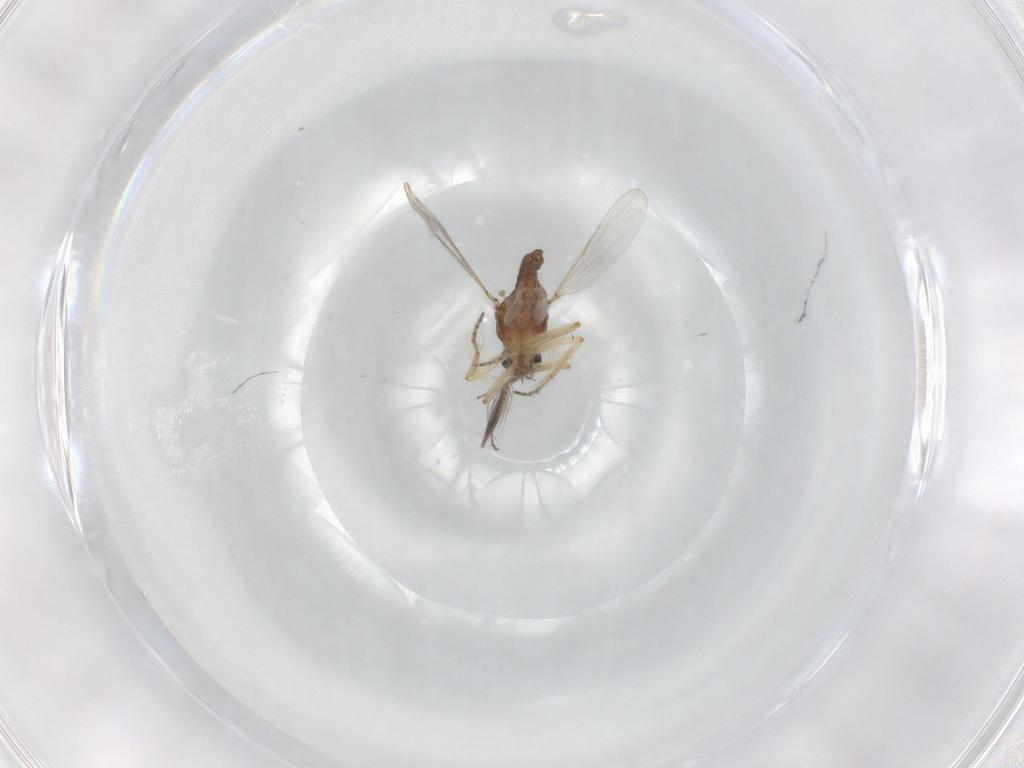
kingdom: Animalia
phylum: Arthropoda
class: Insecta
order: Diptera
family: Ceratopogonidae
